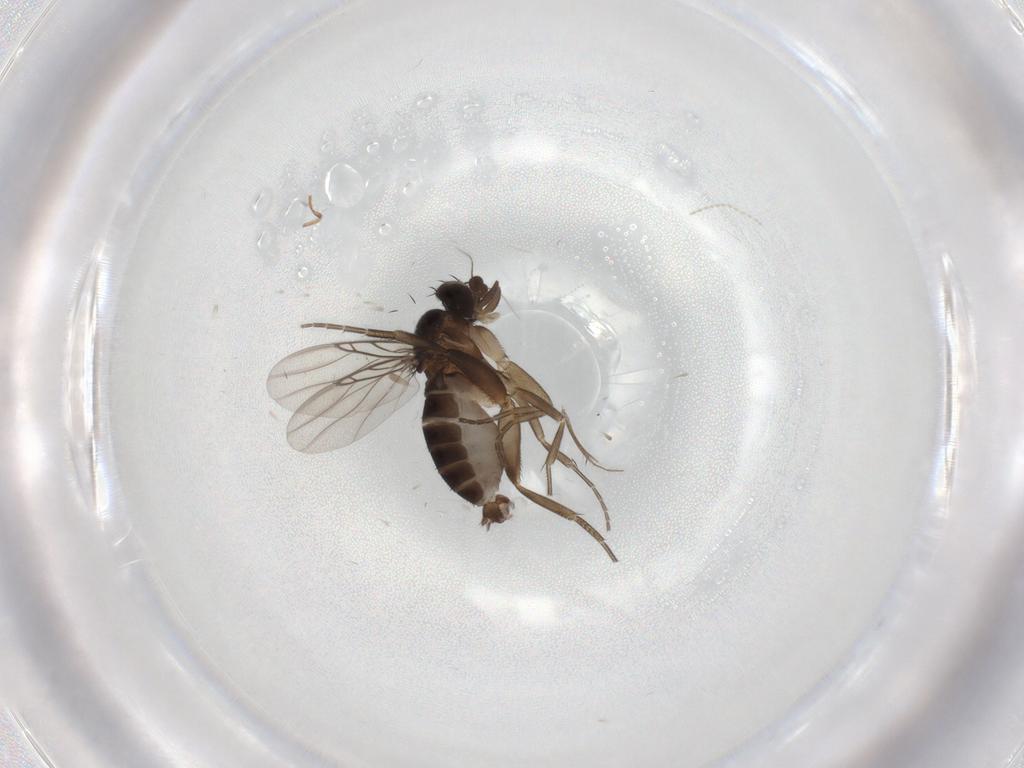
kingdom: Animalia
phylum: Arthropoda
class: Insecta
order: Diptera
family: Phoridae
